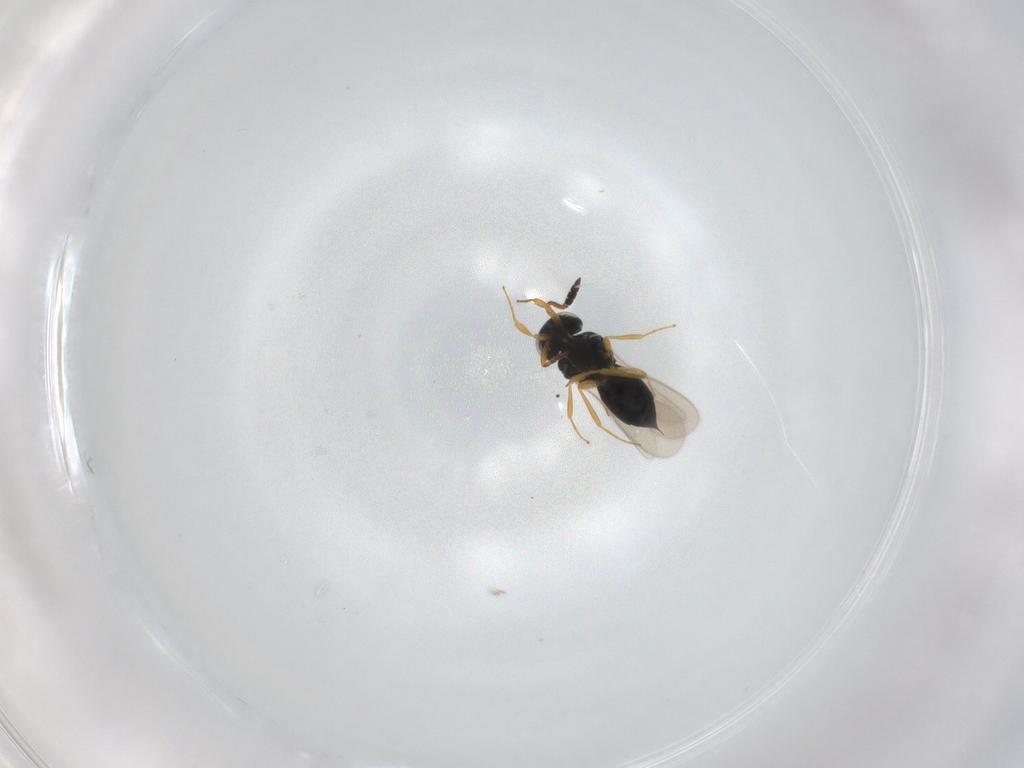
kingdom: Animalia
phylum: Arthropoda
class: Insecta
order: Hymenoptera
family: Scelionidae
